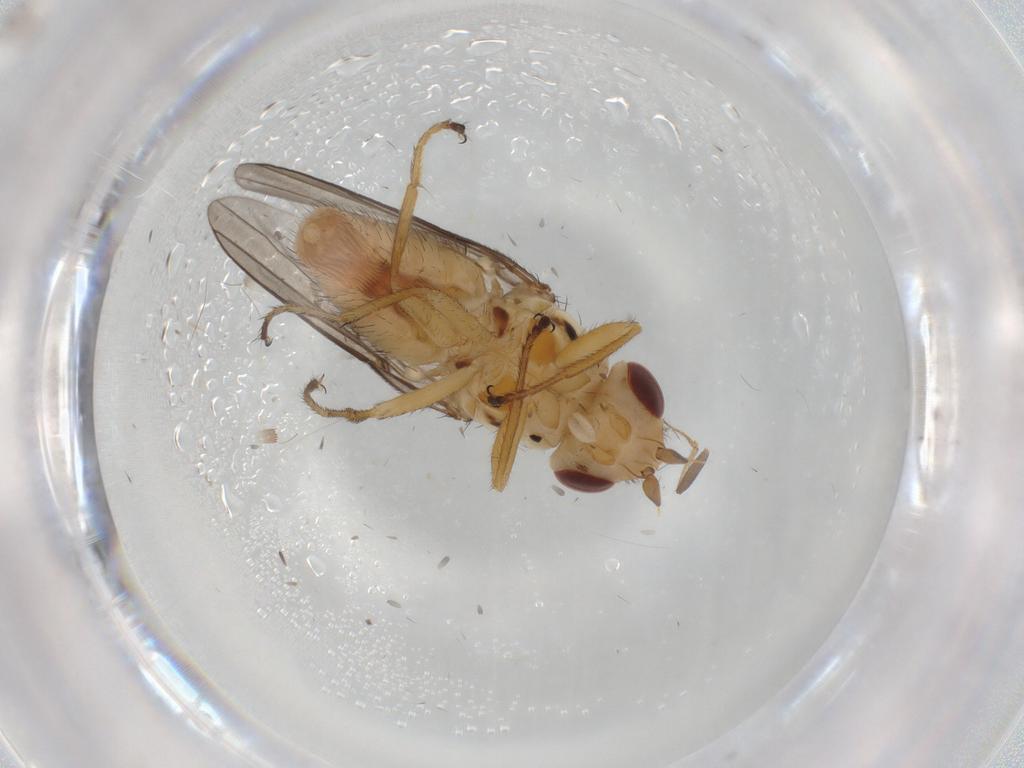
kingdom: Animalia
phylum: Arthropoda
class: Insecta
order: Diptera
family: Chloropidae
